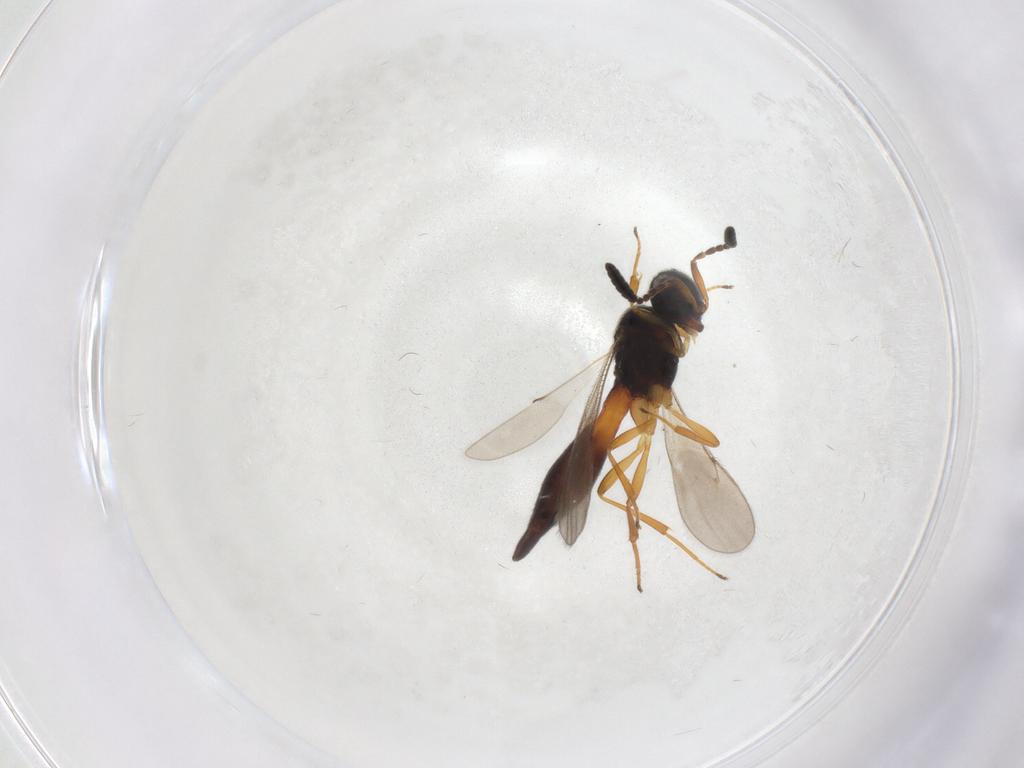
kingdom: Animalia
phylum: Arthropoda
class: Insecta
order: Hymenoptera
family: Scelionidae
